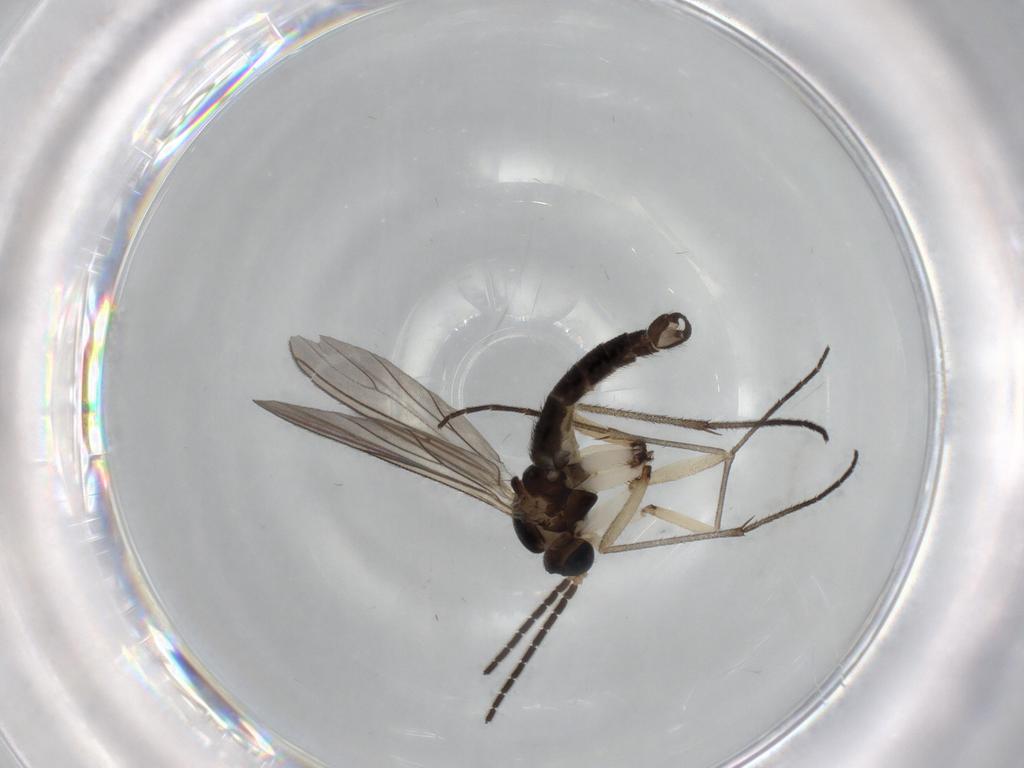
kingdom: Animalia
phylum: Arthropoda
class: Insecta
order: Diptera
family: Sciaridae
